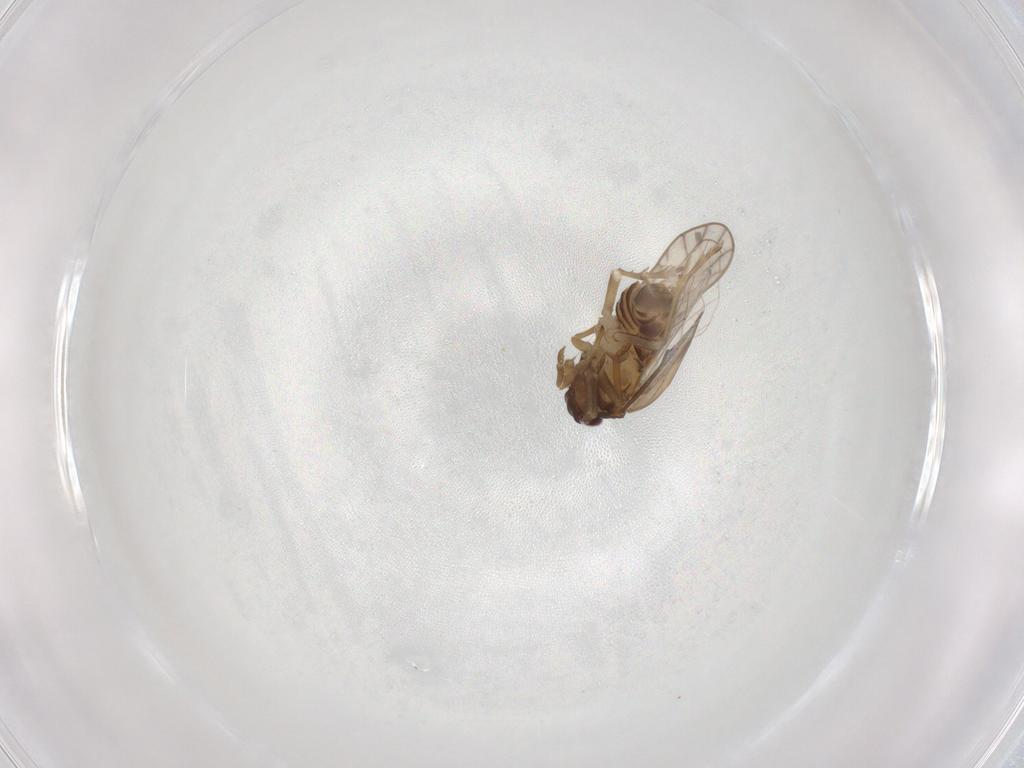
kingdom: Animalia
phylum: Arthropoda
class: Insecta
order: Hemiptera
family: Delphacidae
